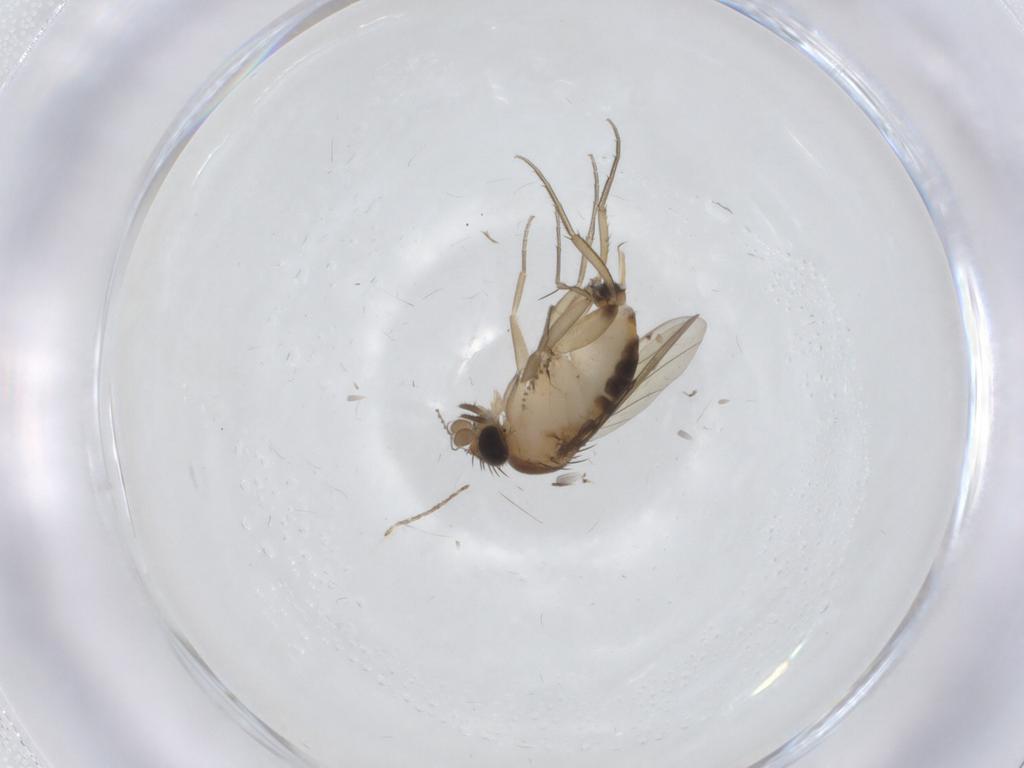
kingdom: Animalia
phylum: Arthropoda
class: Insecta
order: Diptera
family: Phoridae
